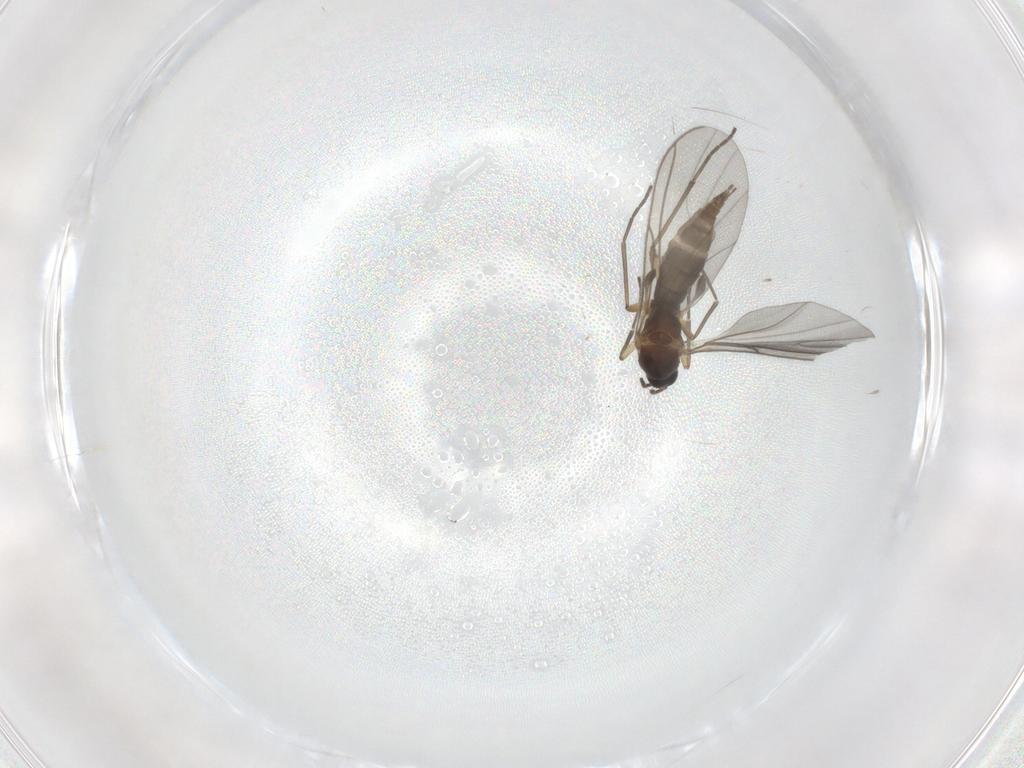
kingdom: Animalia
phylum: Arthropoda
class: Insecta
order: Diptera
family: Sciaridae
